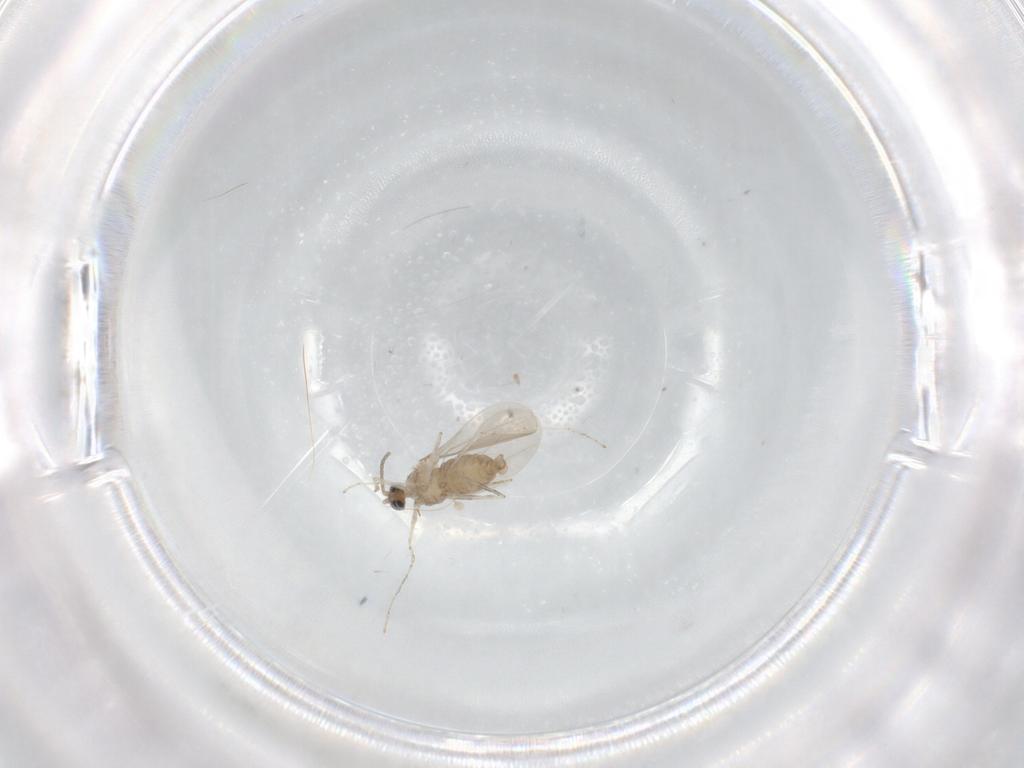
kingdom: Animalia
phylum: Arthropoda
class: Insecta
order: Diptera
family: Cecidomyiidae
